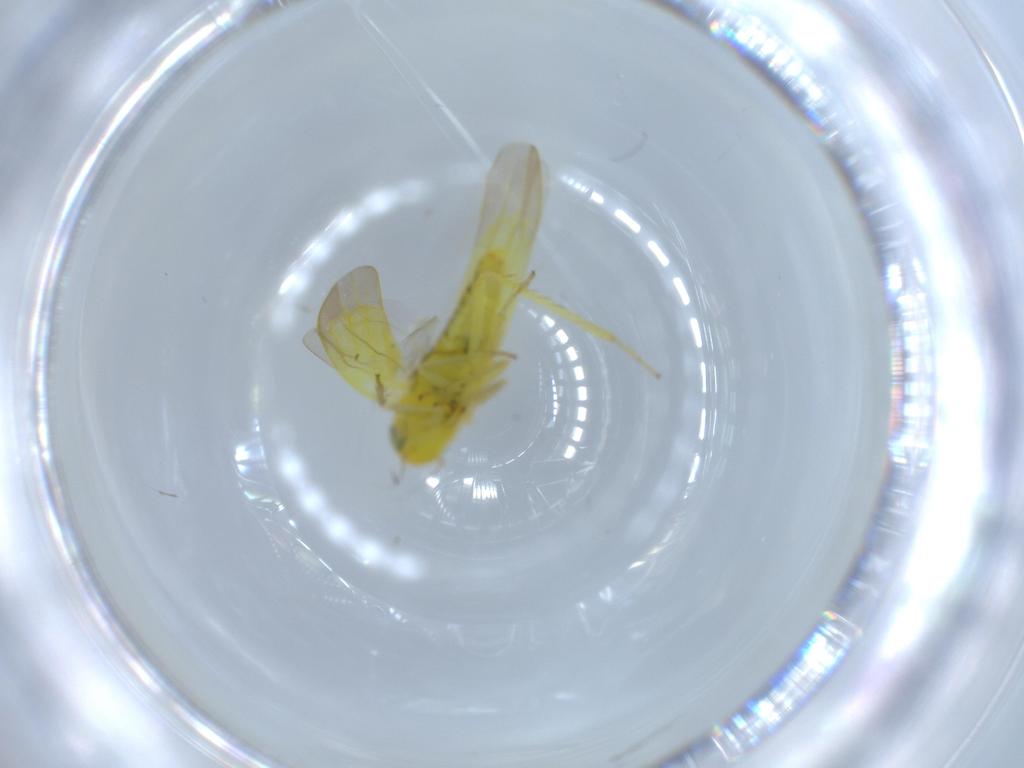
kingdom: Animalia
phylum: Arthropoda
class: Insecta
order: Hemiptera
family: Cicadellidae
